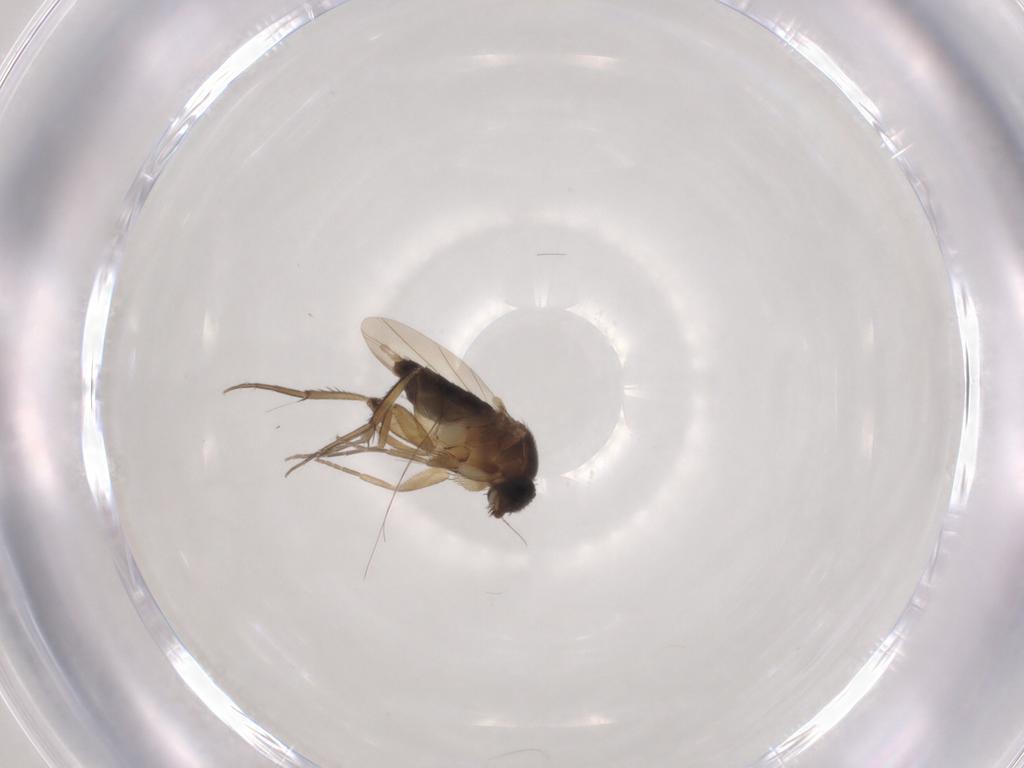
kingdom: Animalia
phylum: Arthropoda
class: Insecta
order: Diptera
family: Phoridae
